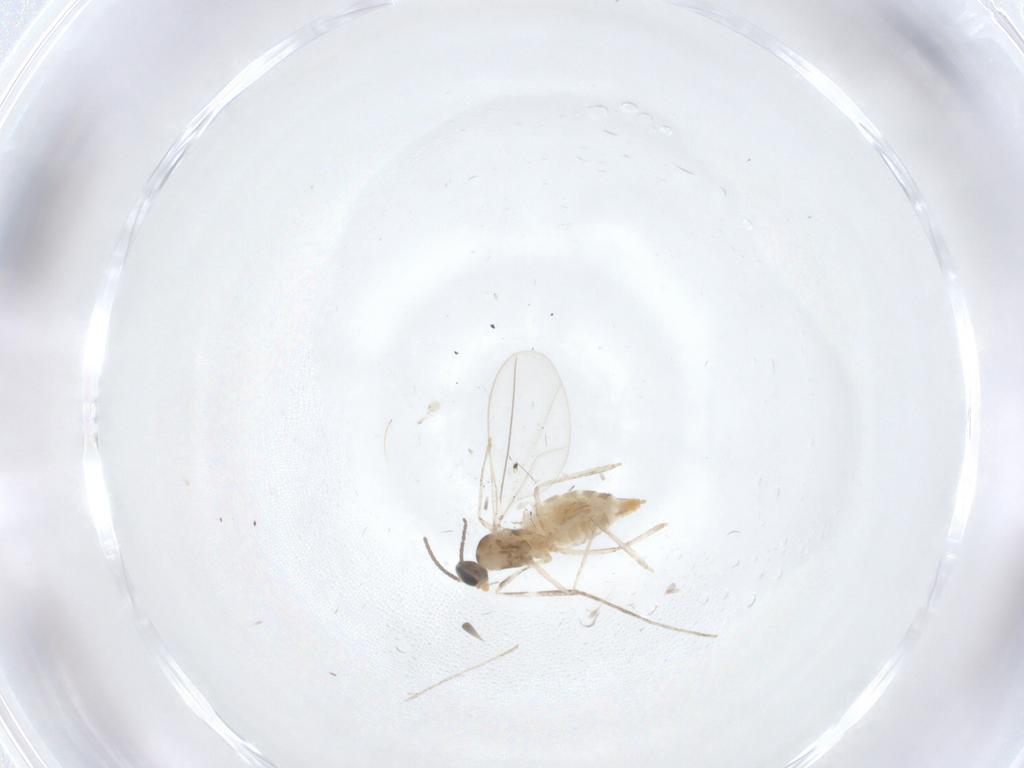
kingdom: Animalia
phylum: Arthropoda
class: Insecta
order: Diptera
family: Cecidomyiidae
